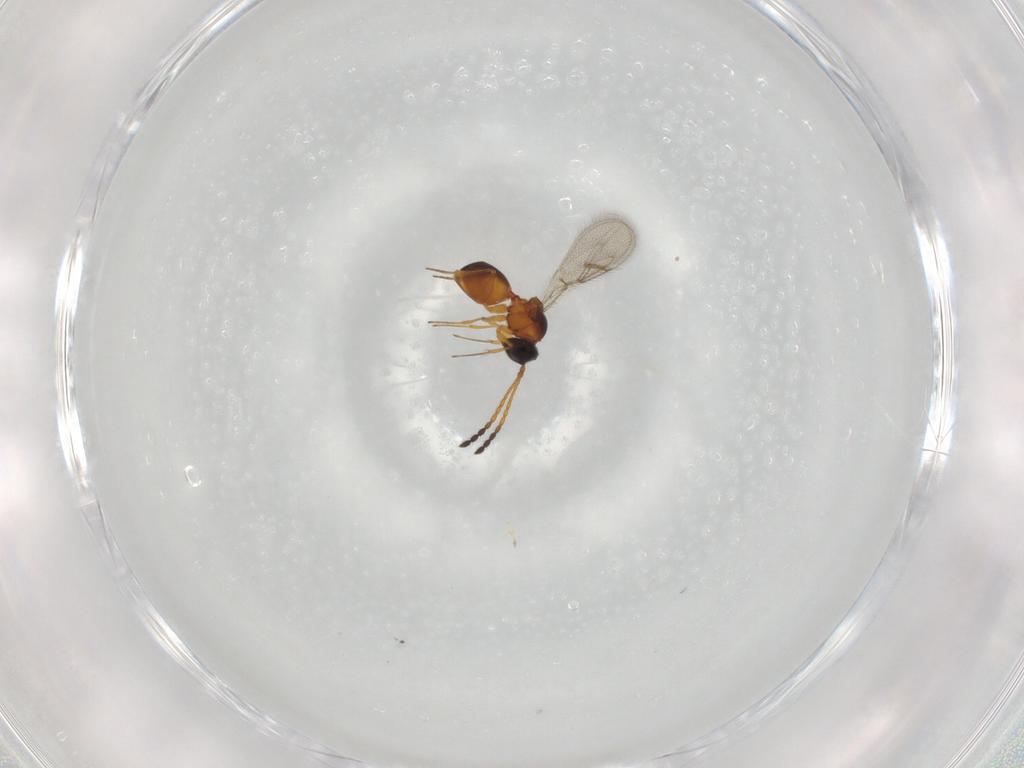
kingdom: Animalia
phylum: Arthropoda
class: Insecta
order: Hymenoptera
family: Figitidae
